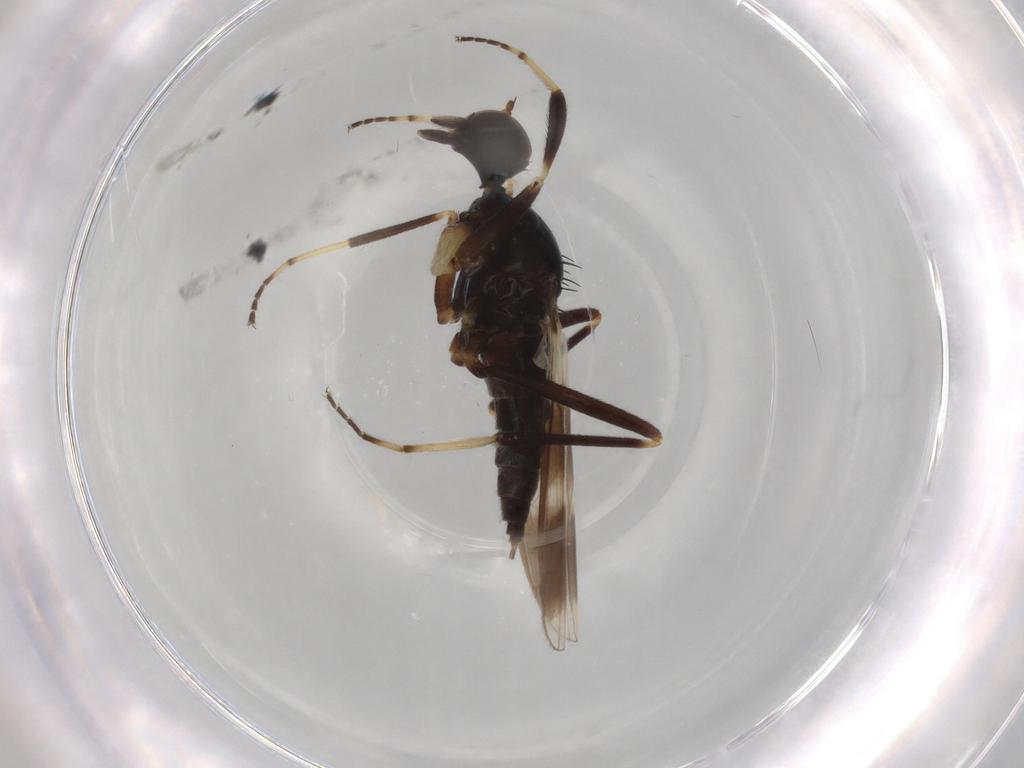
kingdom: Animalia
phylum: Arthropoda
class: Insecta
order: Diptera
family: Hybotidae
